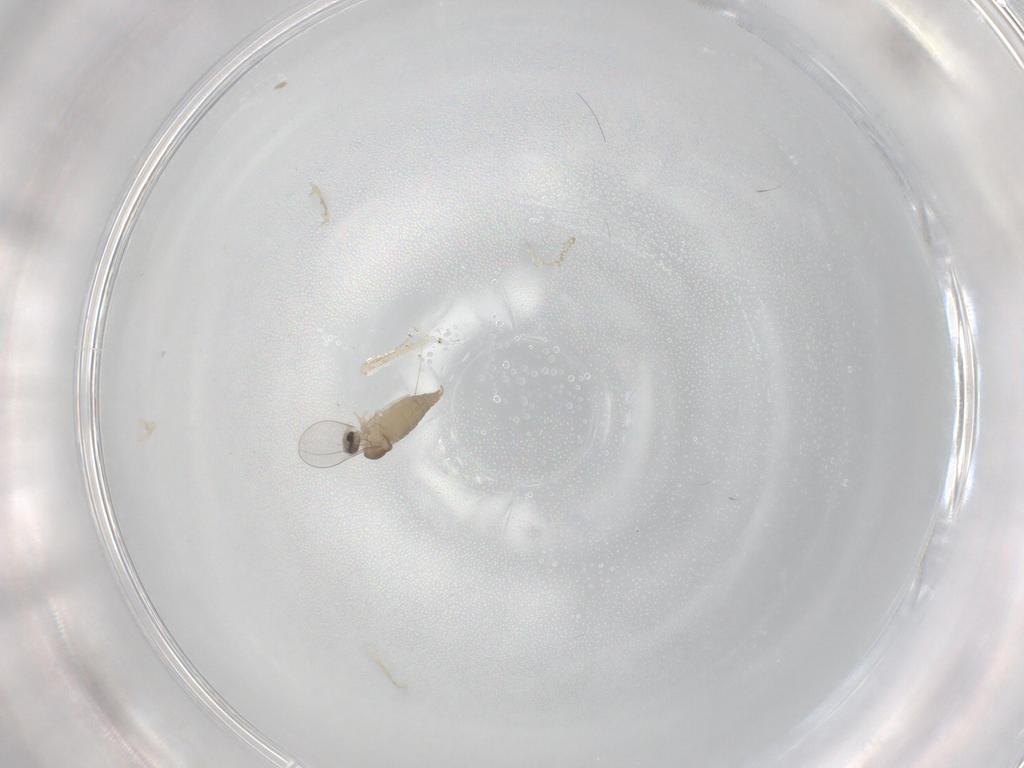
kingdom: Animalia
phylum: Arthropoda
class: Insecta
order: Diptera
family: Cecidomyiidae
